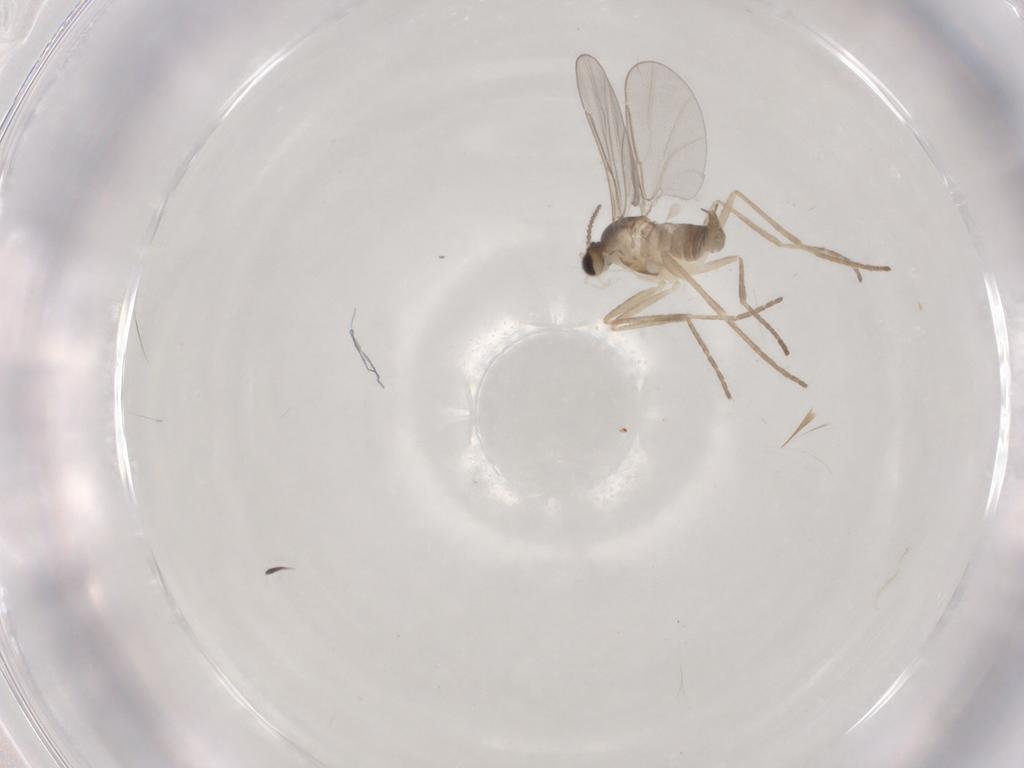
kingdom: Animalia
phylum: Arthropoda
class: Insecta
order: Diptera
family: Cecidomyiidae
